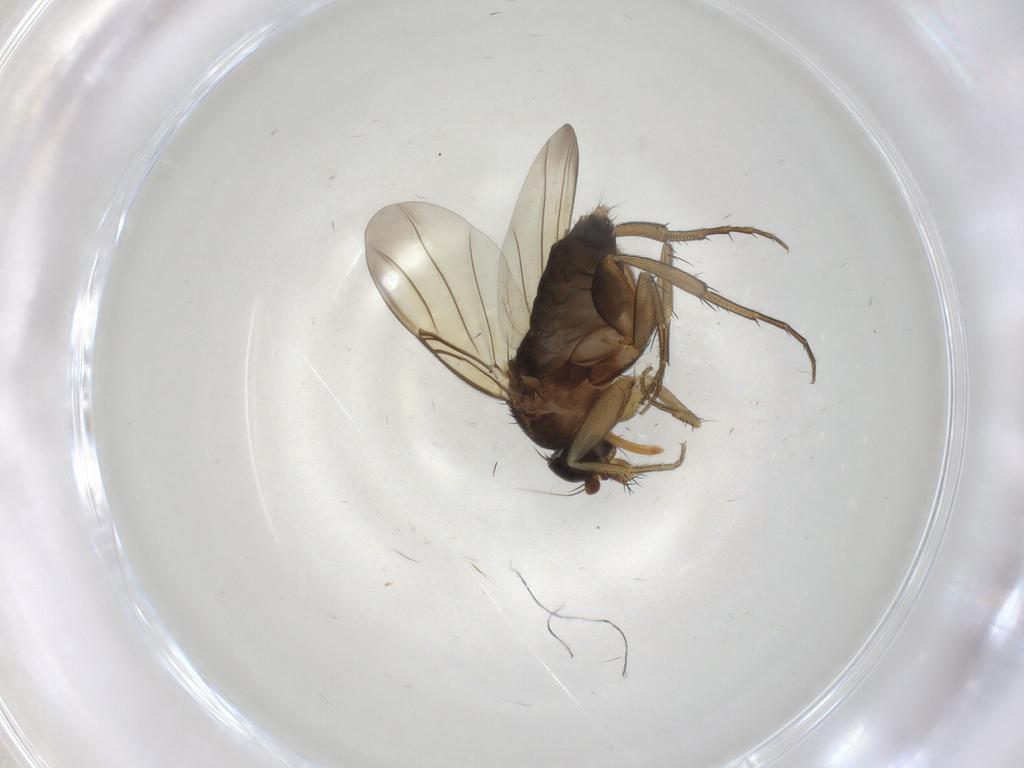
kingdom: Animalia
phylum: Arthropoda
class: Insecta
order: Diptera
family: Phoridae
